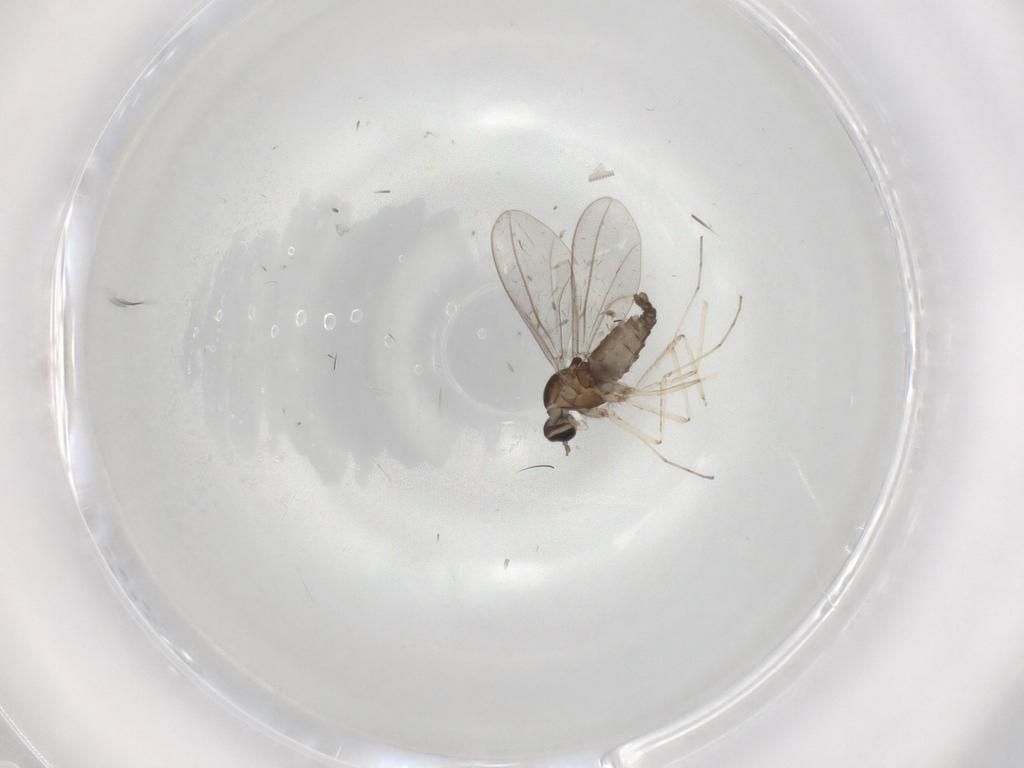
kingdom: Animalia
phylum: Arthropoda
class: Insecta
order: Diptera
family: Cecidomyiidae
